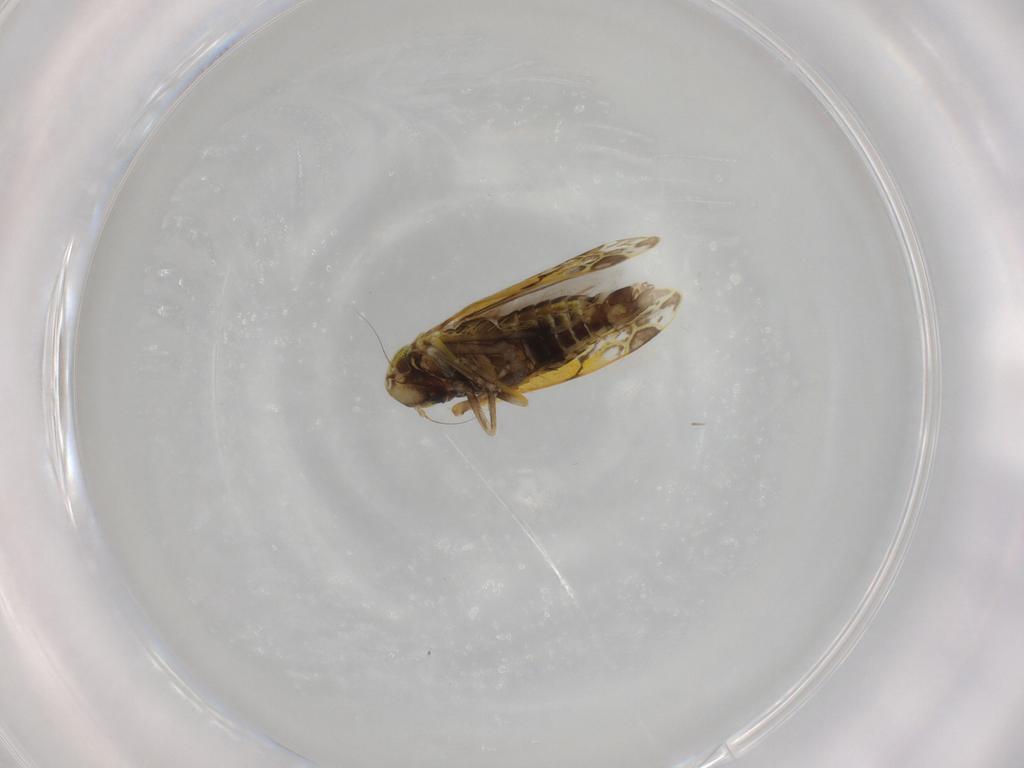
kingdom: Animalia
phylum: Arthropoda
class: Insecta
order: Hemiptera
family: Cicadellidae
